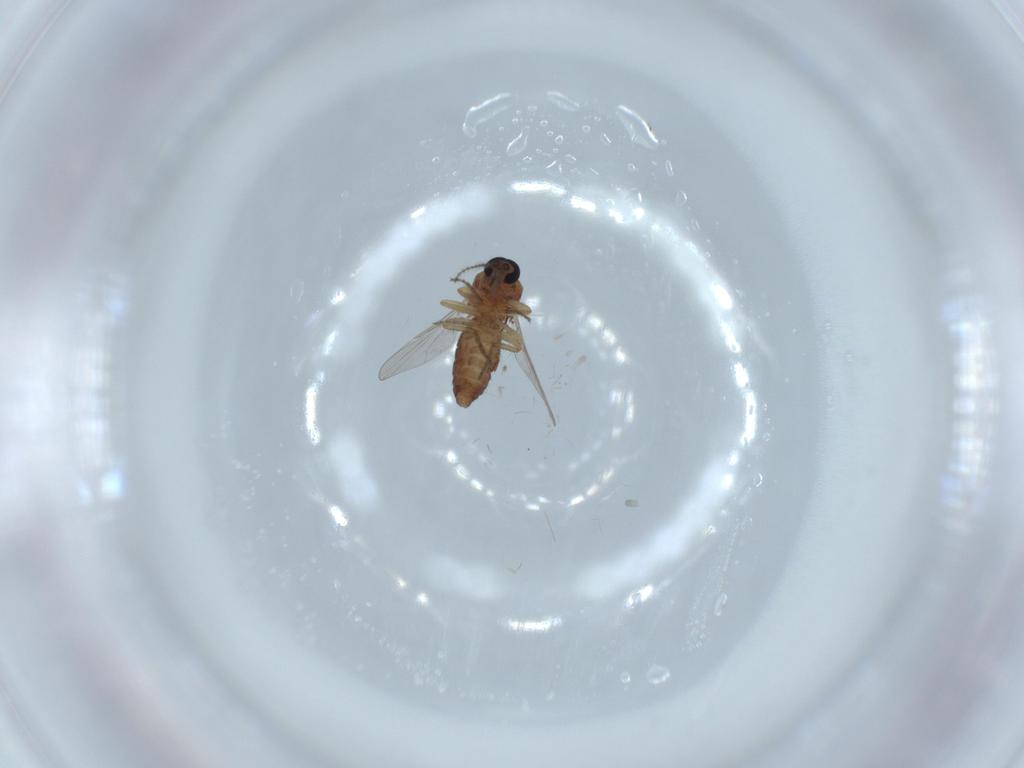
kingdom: Animalia
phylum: Arthropoda
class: Insecta
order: Diptera
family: Ceratopogonidae
